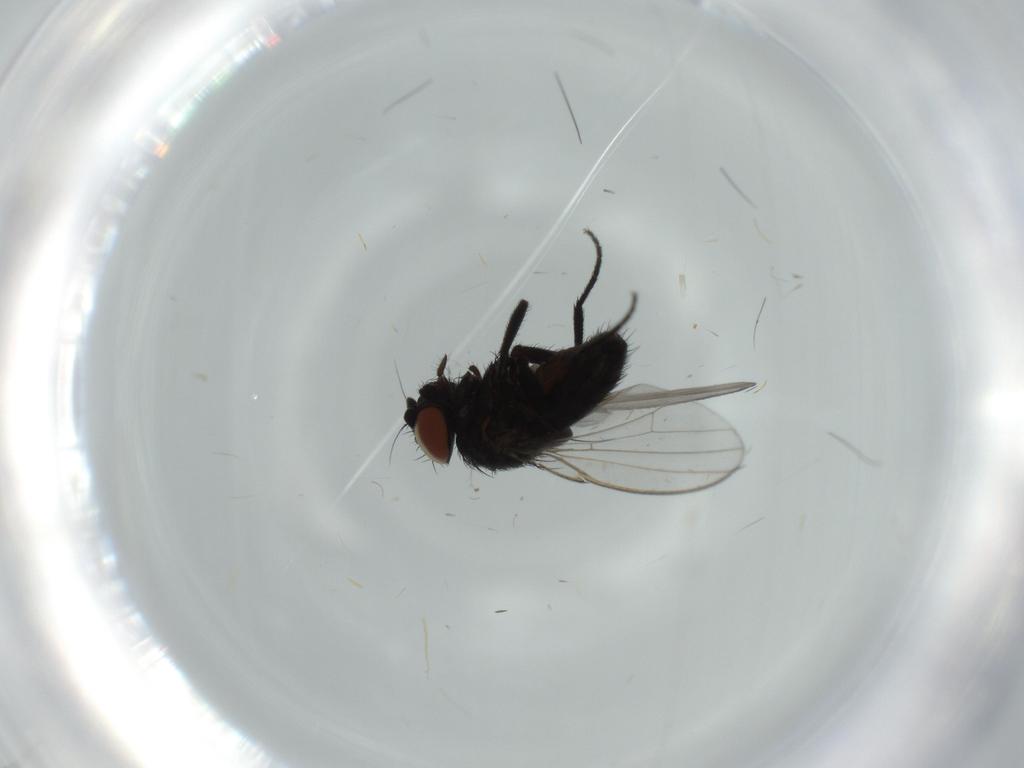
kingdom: Animalia
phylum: Arthropoda
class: Insecta
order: Diptera
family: Milichiidae
